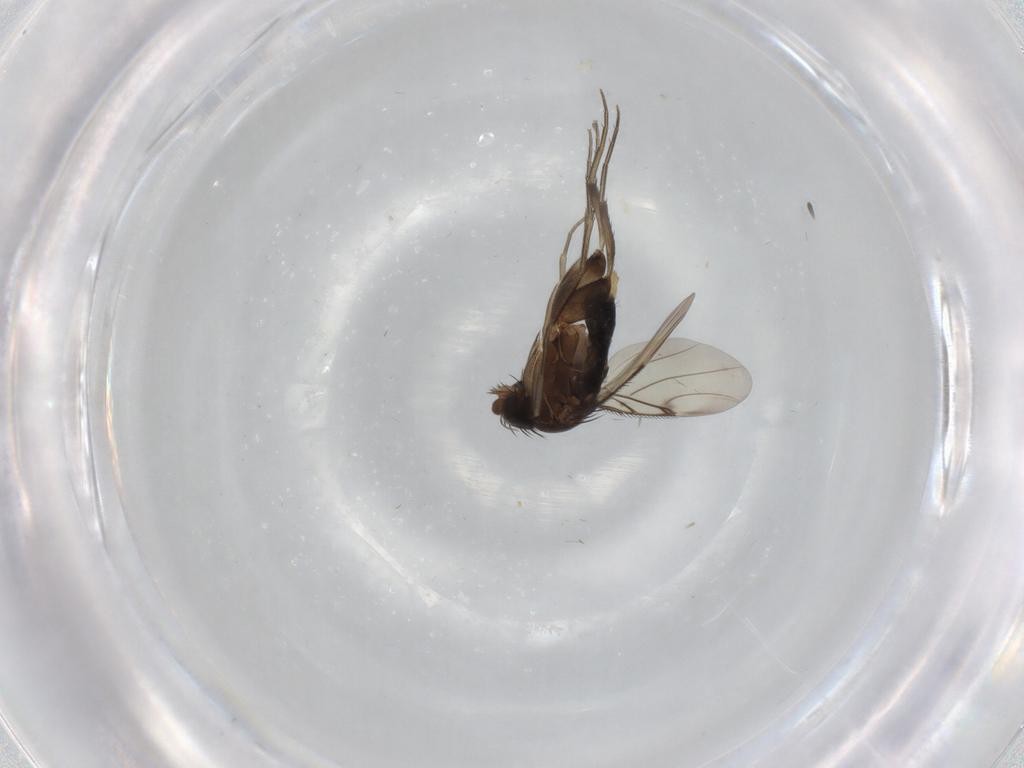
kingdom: Animalia
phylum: Arthropoda
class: Insecta
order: Diptera
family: Phoridae
